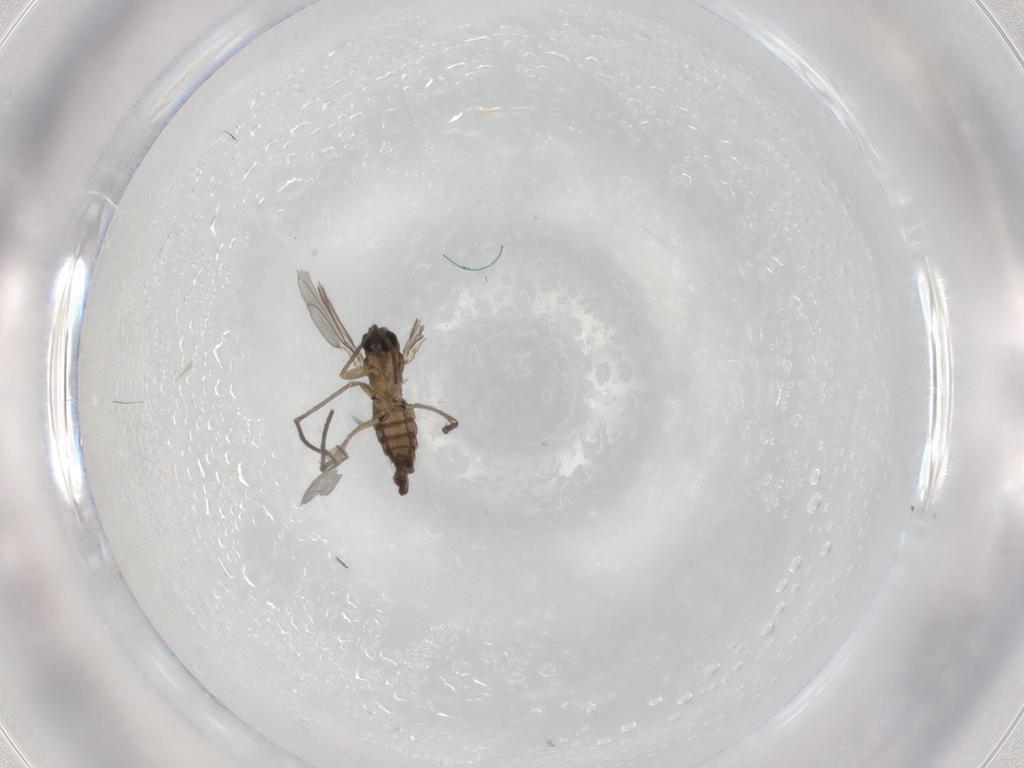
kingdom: Animalia
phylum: Arthropoda
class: Insecta
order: Diptera
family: Sciaridae
